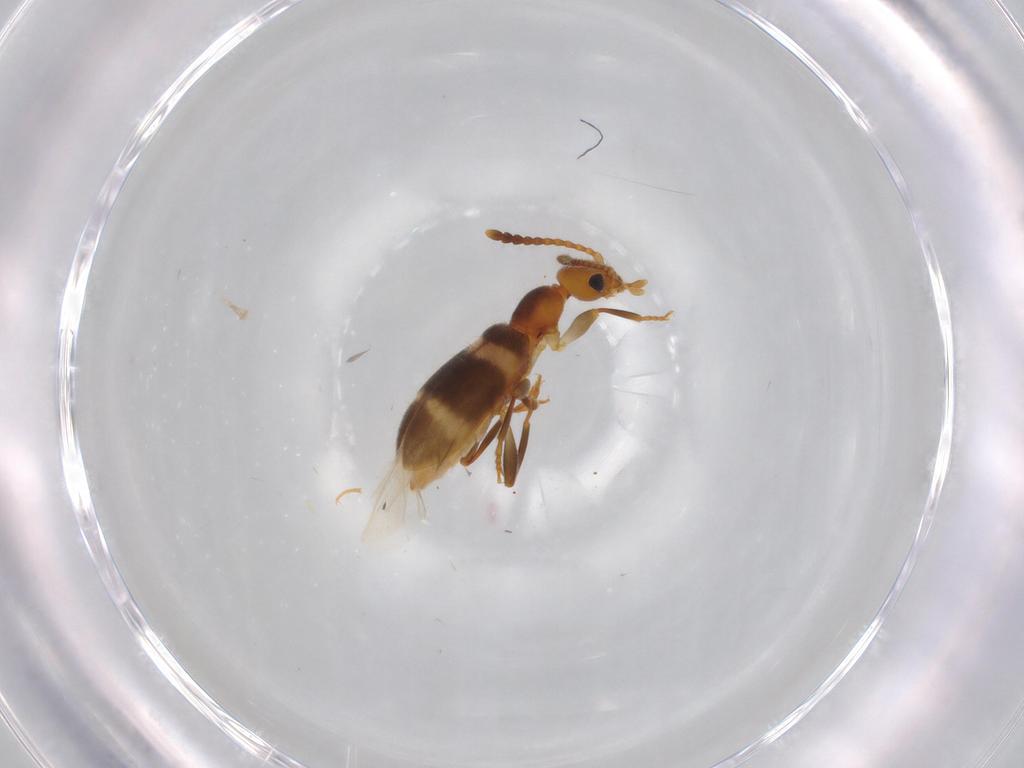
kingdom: Animalia
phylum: Arthropoda
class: Insecta
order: Coleoptera
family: Anthicidae
